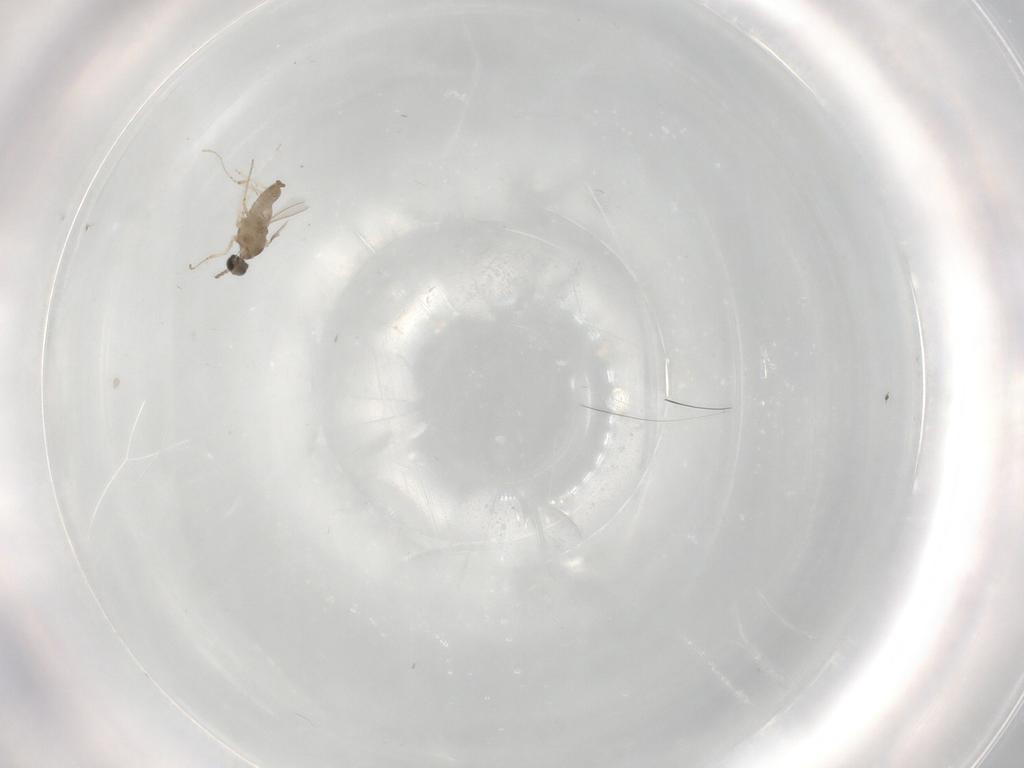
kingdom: Animalia
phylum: Arthropoda
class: Insecta
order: Diptera
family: Cecidomyiidae
